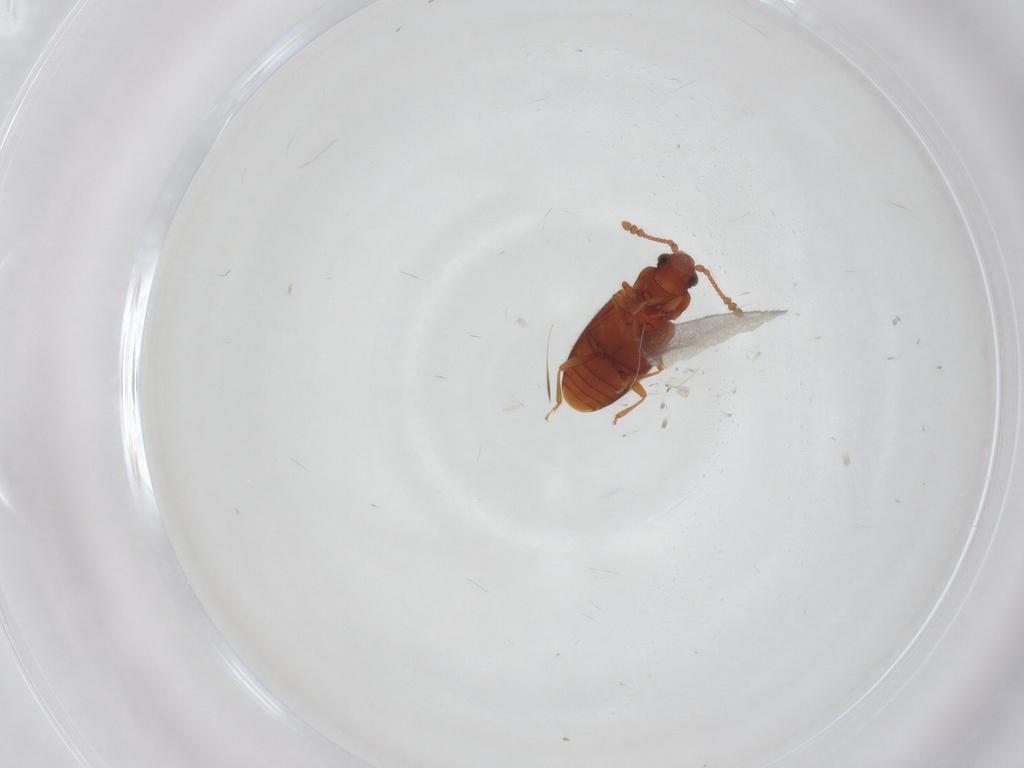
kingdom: Animalia
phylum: Arthropoda
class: Insecta
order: Coleoptera
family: Cryptophagidae
